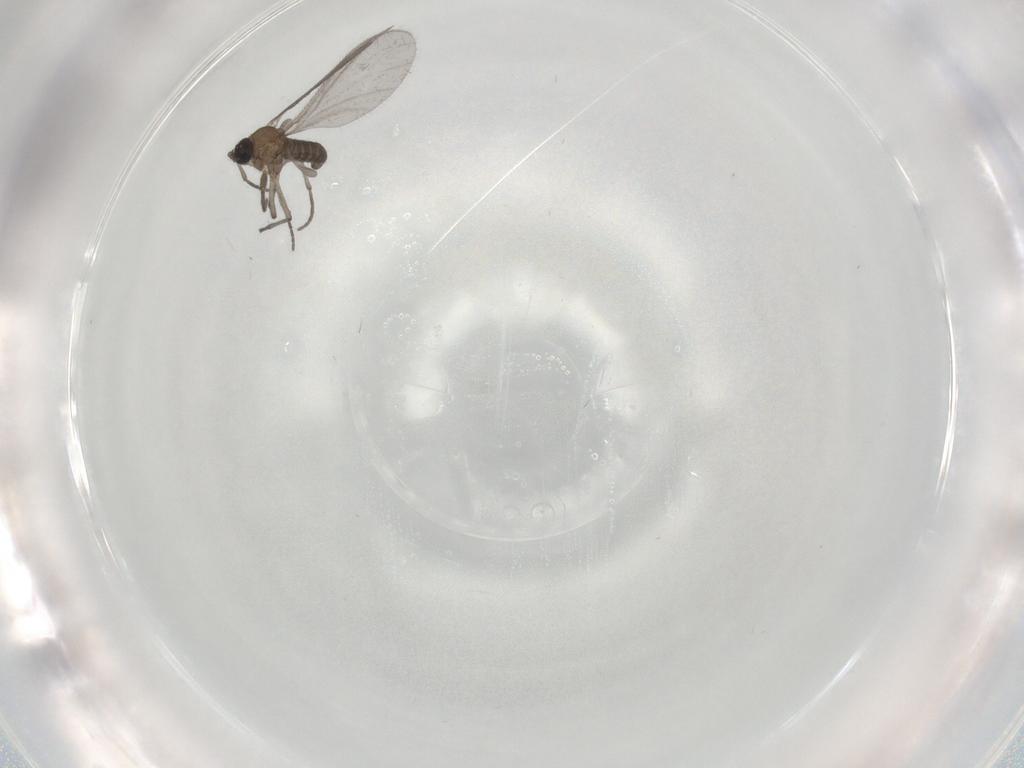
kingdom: Animalia
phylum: Arthropoda
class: Insecta
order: Diptera
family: Sciaridae
